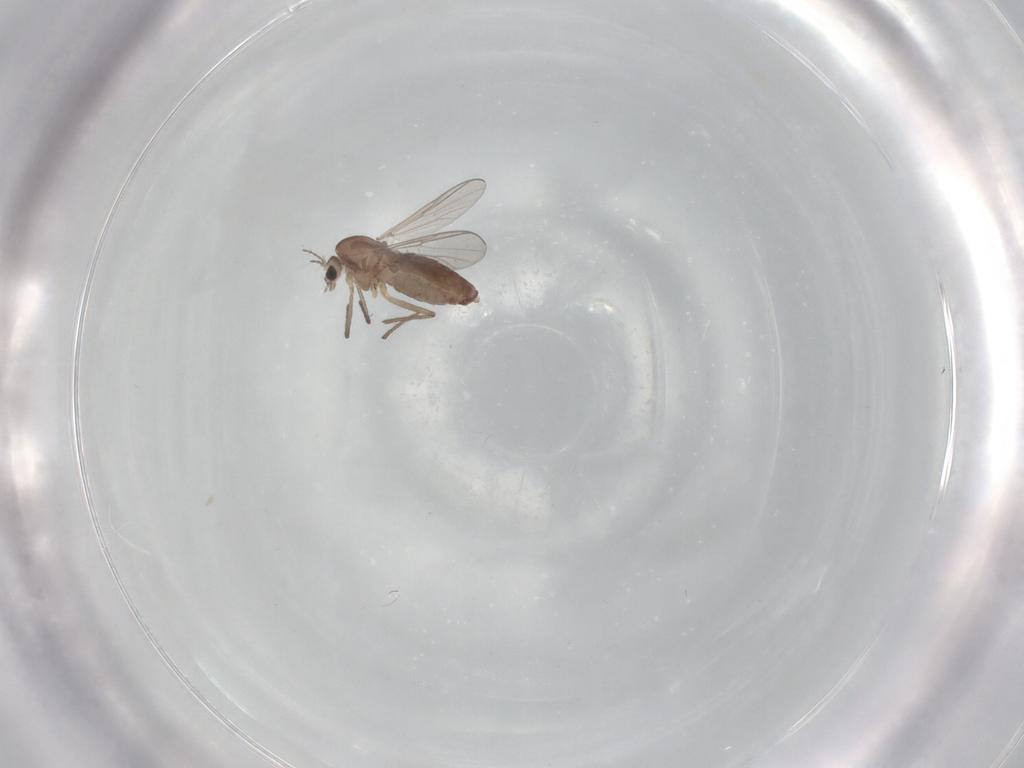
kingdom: Animalia
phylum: Arthropoda
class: Insecta
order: Diptera
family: Chironomidae
